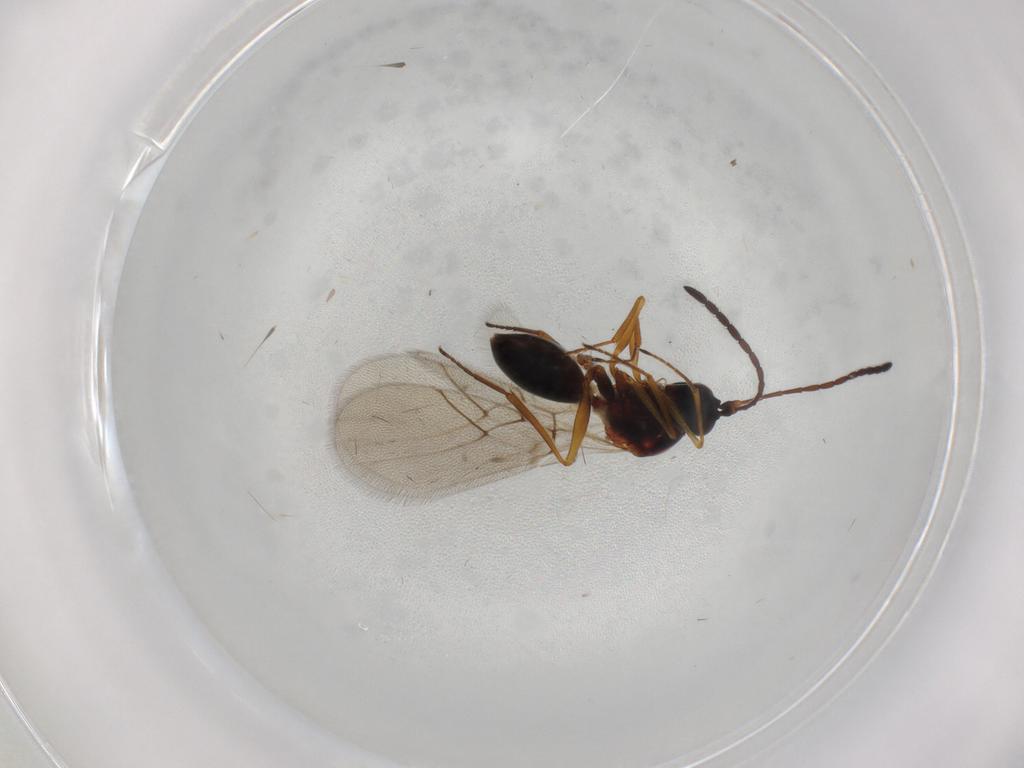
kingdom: Animalia
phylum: Arthropoda
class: Insecta
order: Hymenoptera
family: Figitidae
